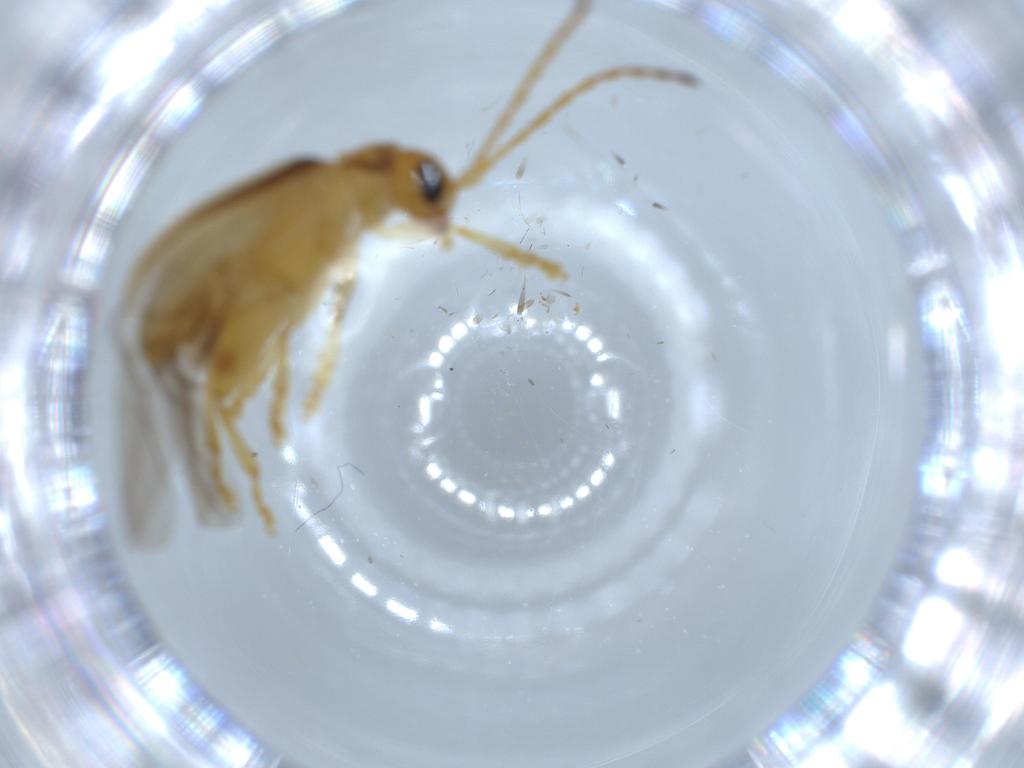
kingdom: Animalia
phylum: Arthropoda
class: Insecta
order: Coleoptera
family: Chrysomelidae
